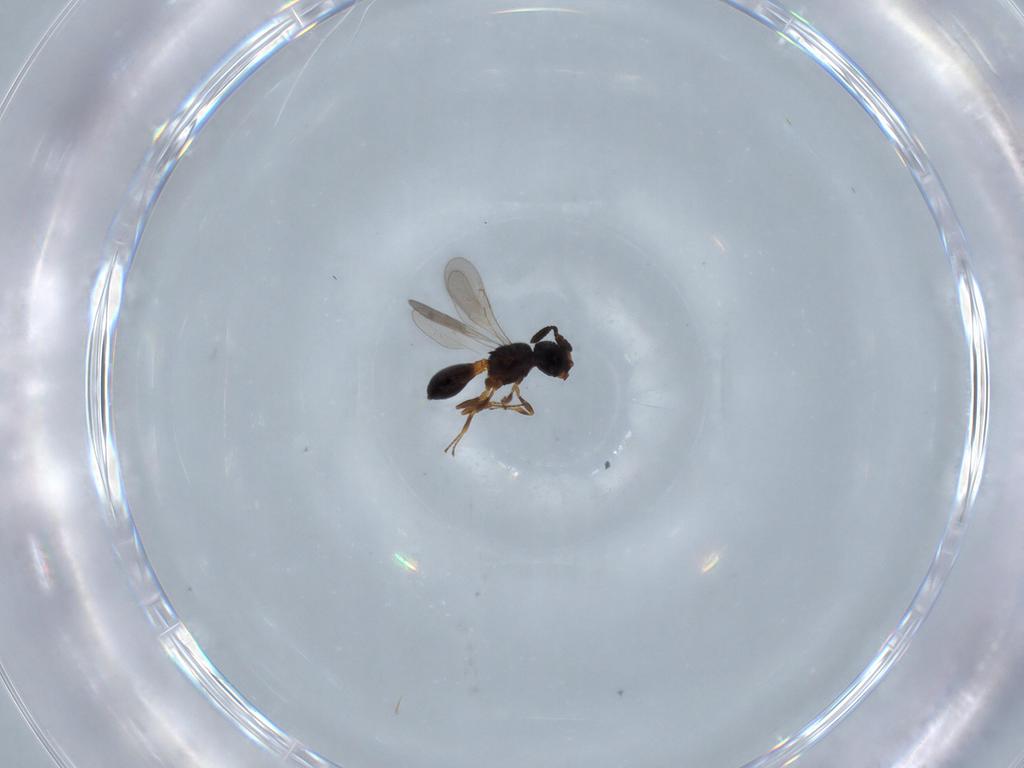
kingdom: Animalia
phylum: Arthropoda
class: Insecta
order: Hymenoptera
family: Scelionidae
